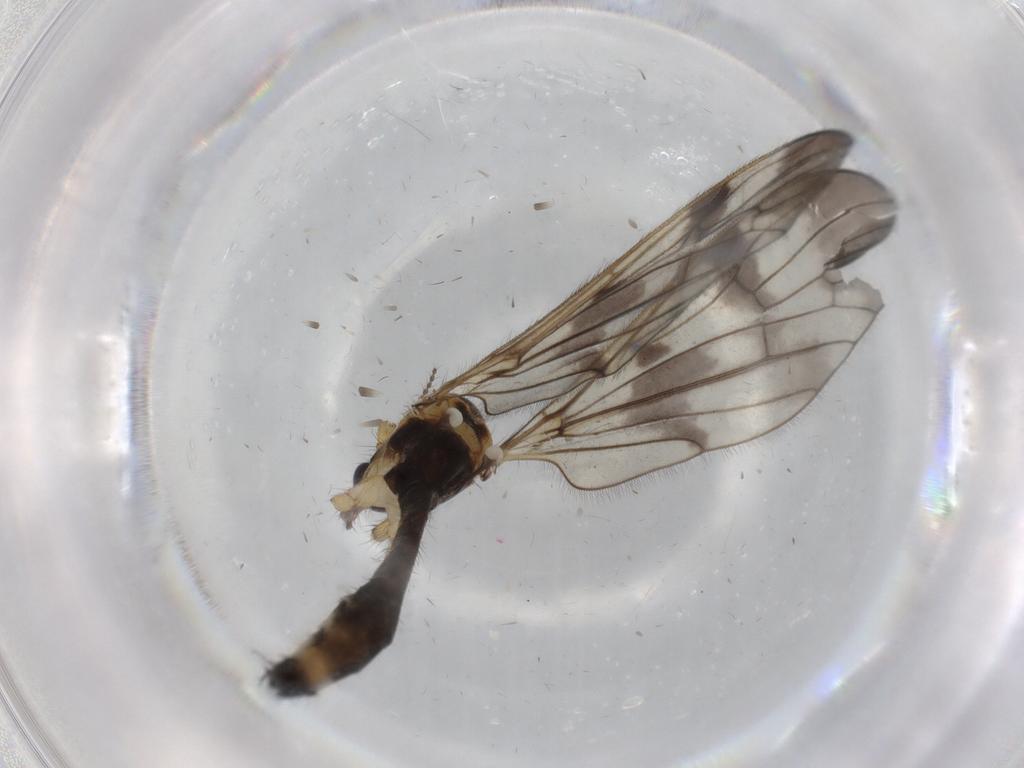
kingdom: Animalia
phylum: Arthropoda
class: Insecta
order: Diptera
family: Limoniidae
